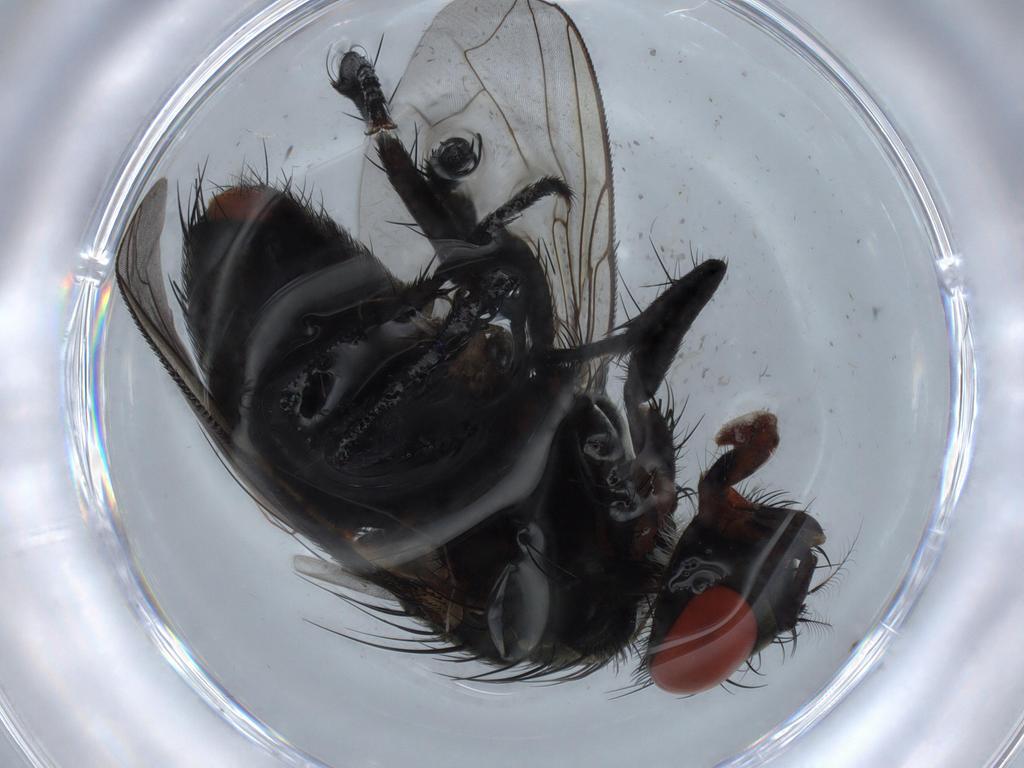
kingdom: Animalia
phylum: Arthropoda
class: Insecta
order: Diptera
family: Sarcophagidae
